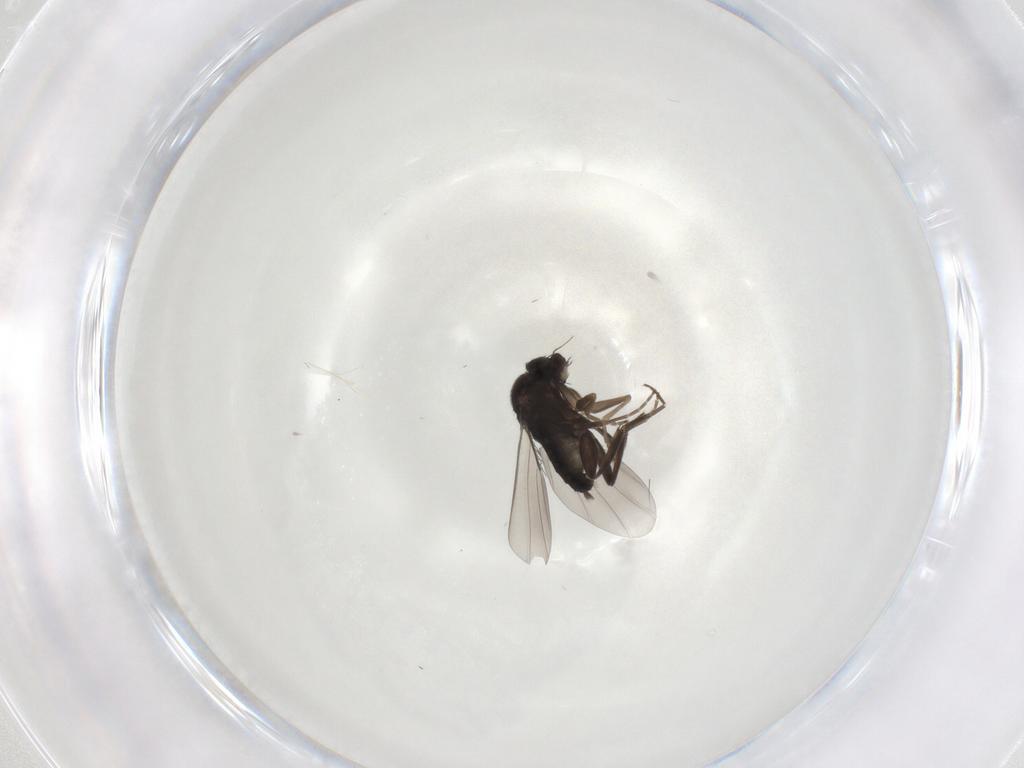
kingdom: Animalia
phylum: Arthropoda
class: Insecta
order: Diptera
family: Phoridae
